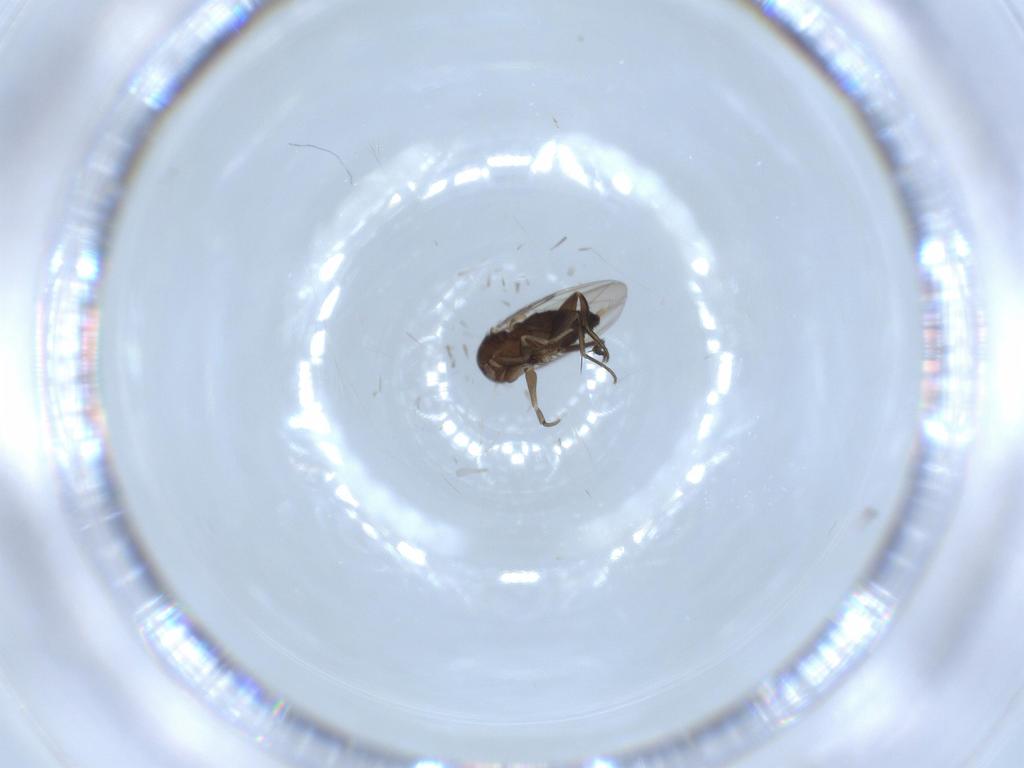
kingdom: Animalia
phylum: Arthropoda
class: Insecta
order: Diptera
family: Phoridae
